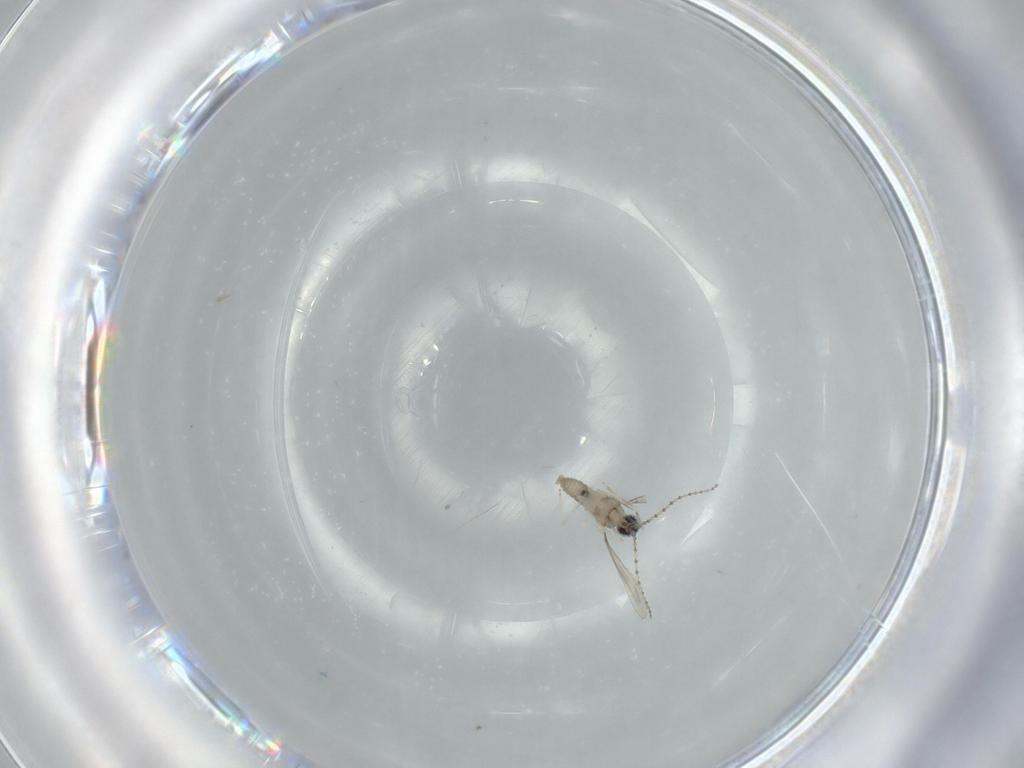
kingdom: Animalia
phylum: Arthropoda
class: Insecta
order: Diptera
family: Cecidomyiidae
